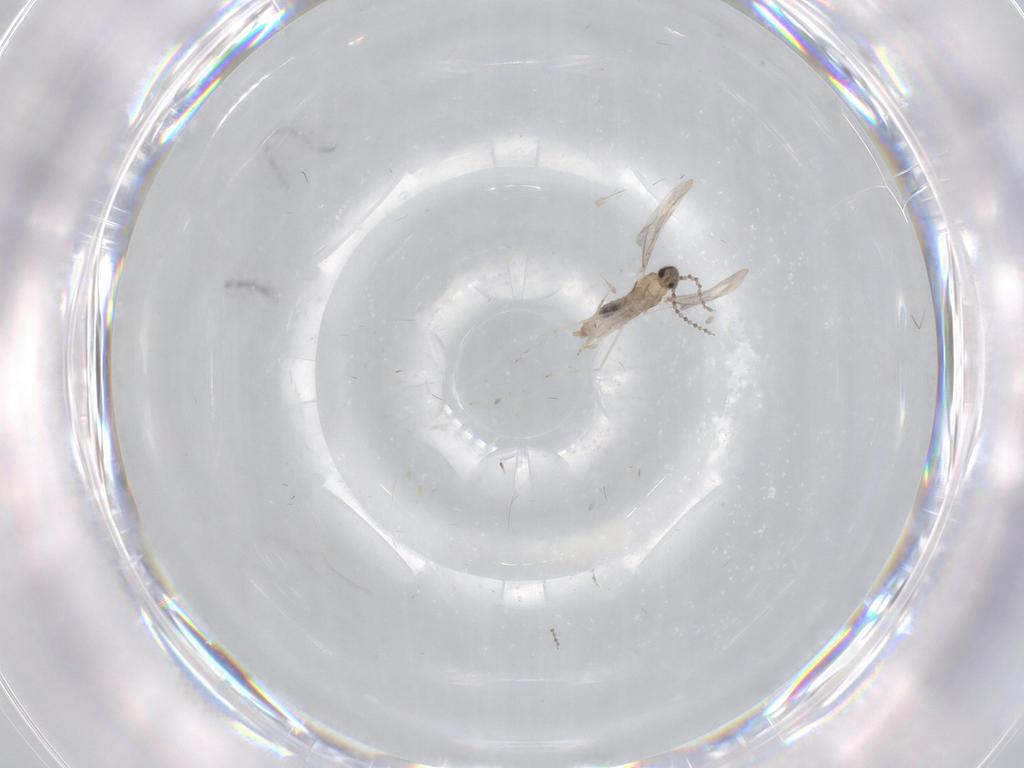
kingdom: Animalia
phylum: Arthropoda
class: Insecta
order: Diptera
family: Cecidomyiidae
